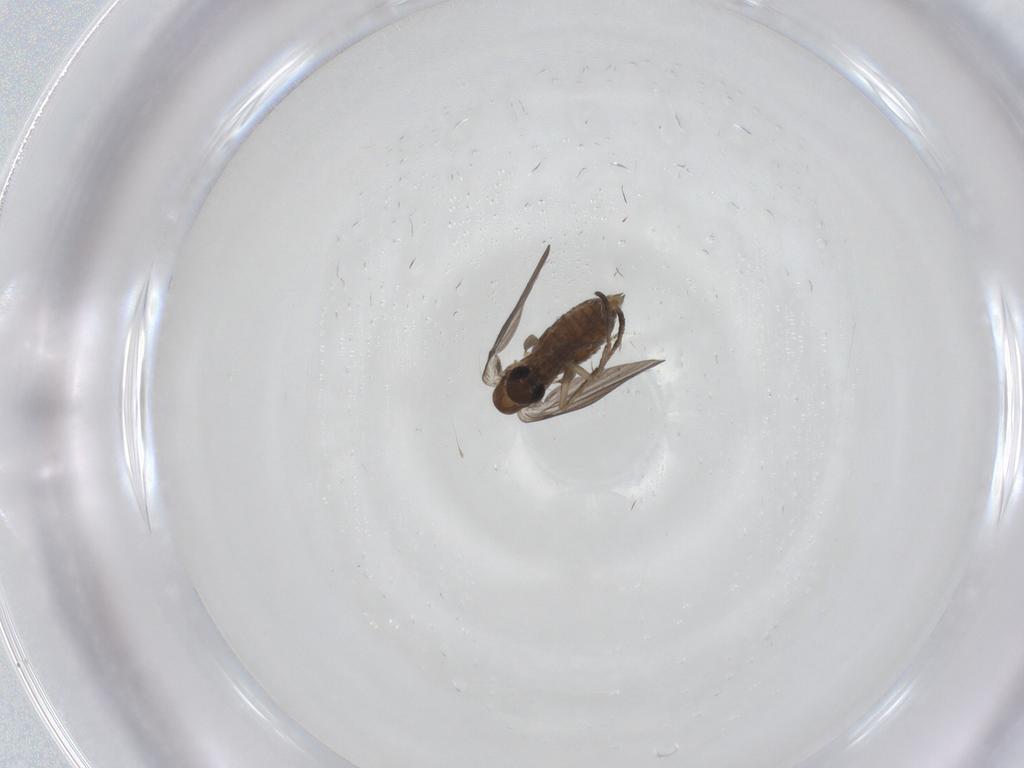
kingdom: Animalia
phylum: Arthropoda
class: Insecta
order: Diptera
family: Psychodidae
